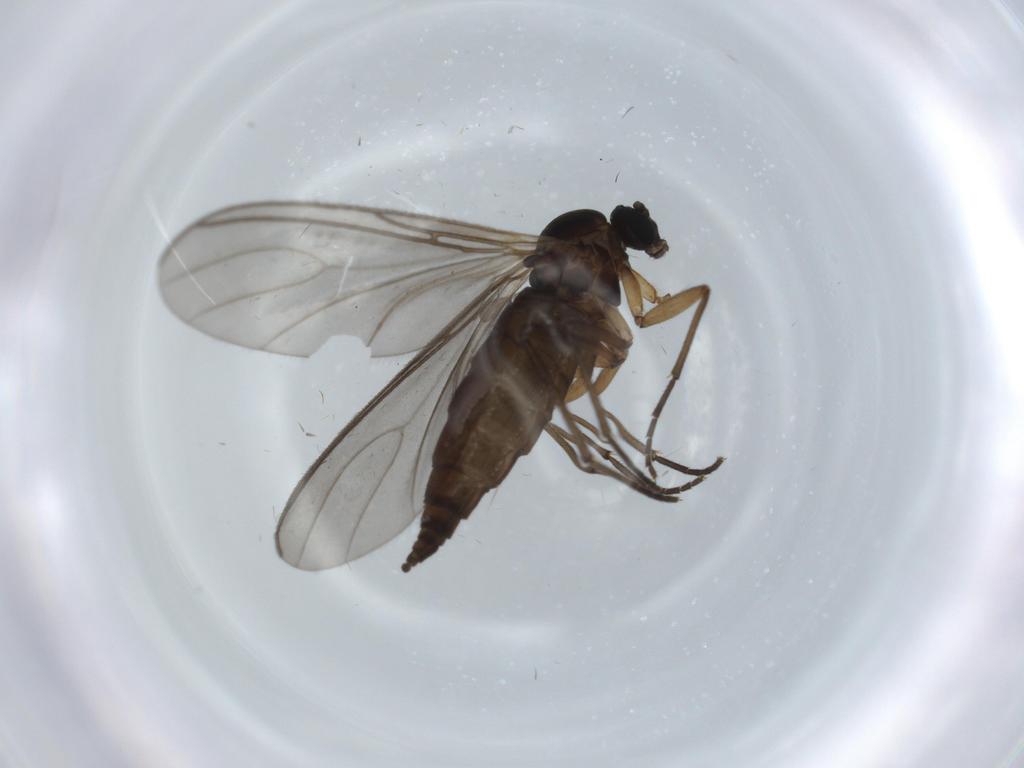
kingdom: Animalia
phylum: Arthropoda
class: Insecta
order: Diptera
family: Sciaridae
